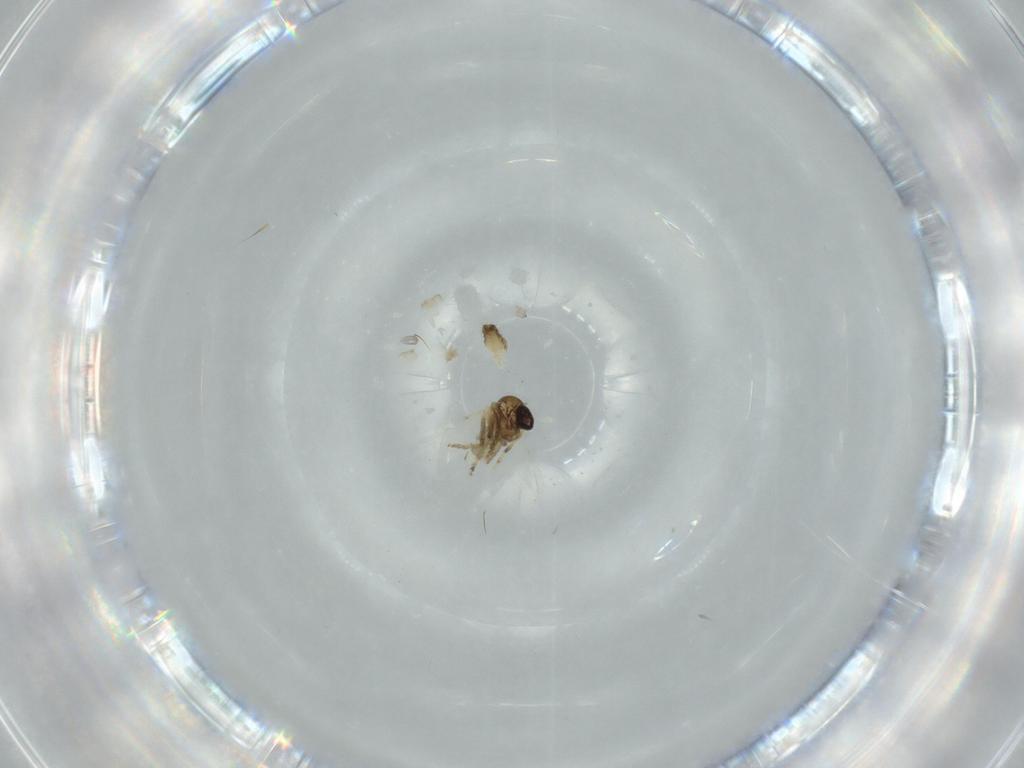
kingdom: Animalia
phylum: Arthropoda
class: Insecta
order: Diptera
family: Ceratopogonidae
